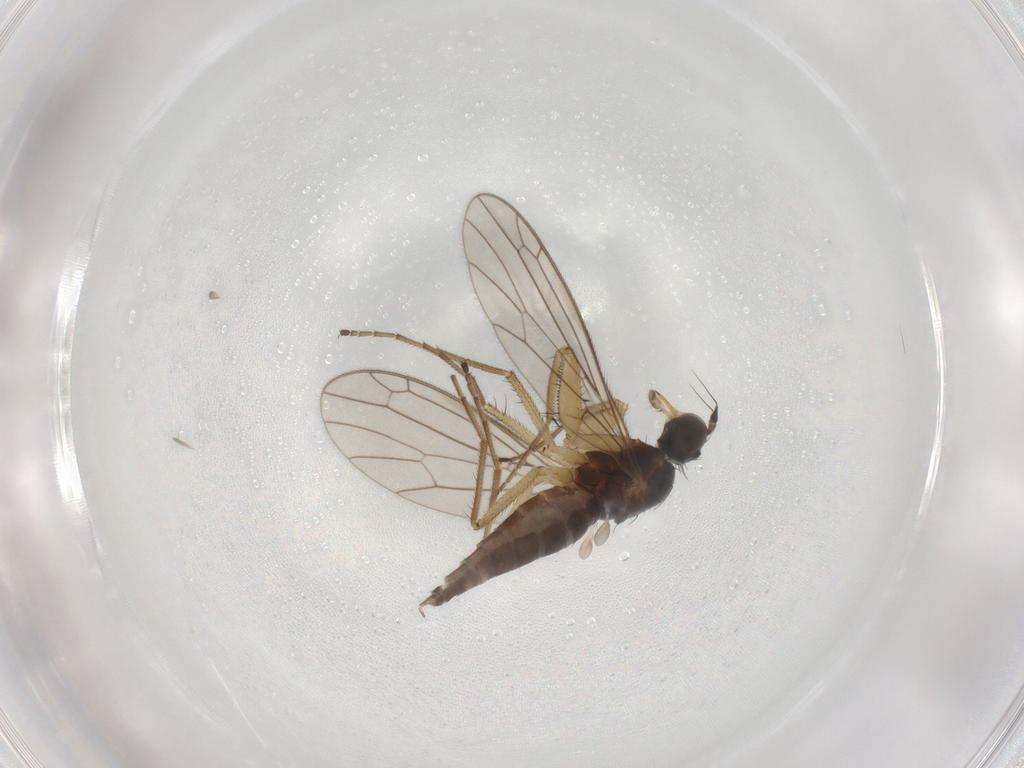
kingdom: Animalia
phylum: Arthropoda
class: Insecta
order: Diptera
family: Empididae
